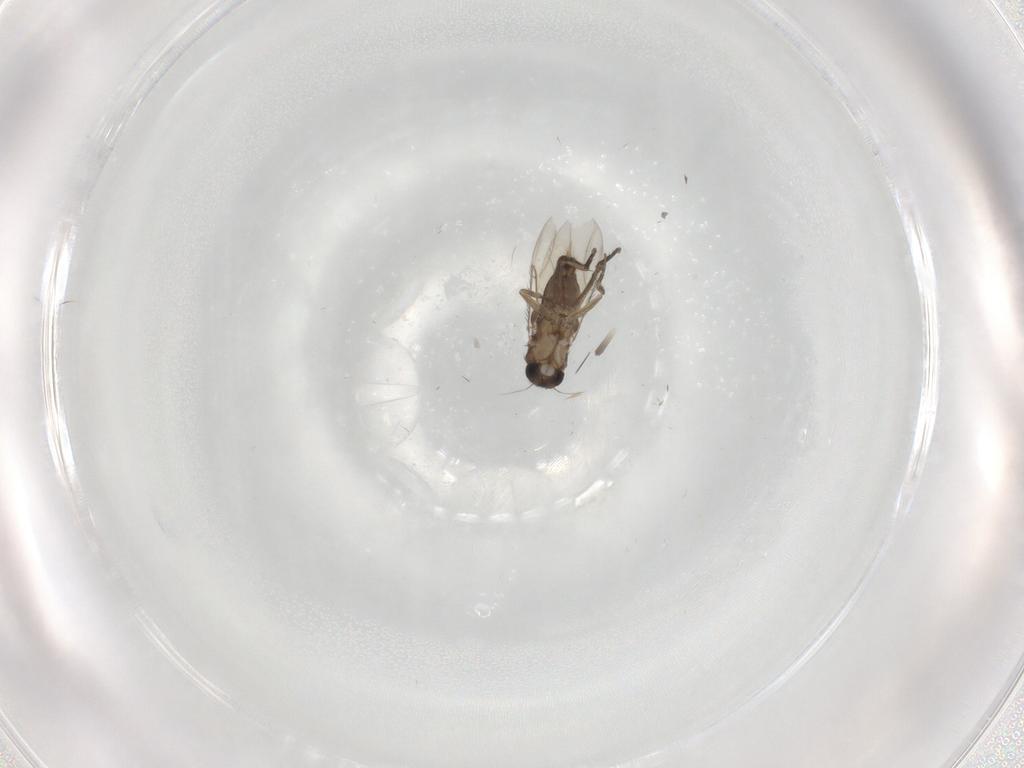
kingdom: Animalia
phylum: Arthropoda
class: Insecta
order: Diptera
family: Phoridae
